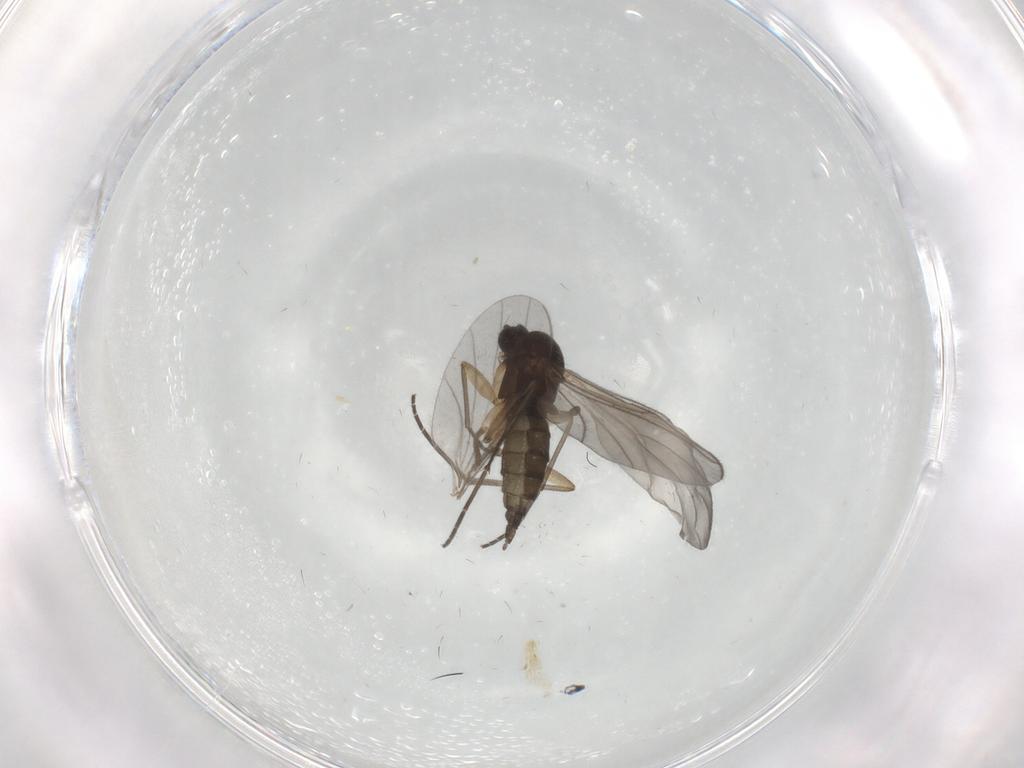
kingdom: Animalia
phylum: Arthropoda
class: Insecta
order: Diptera
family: Sciaridae
